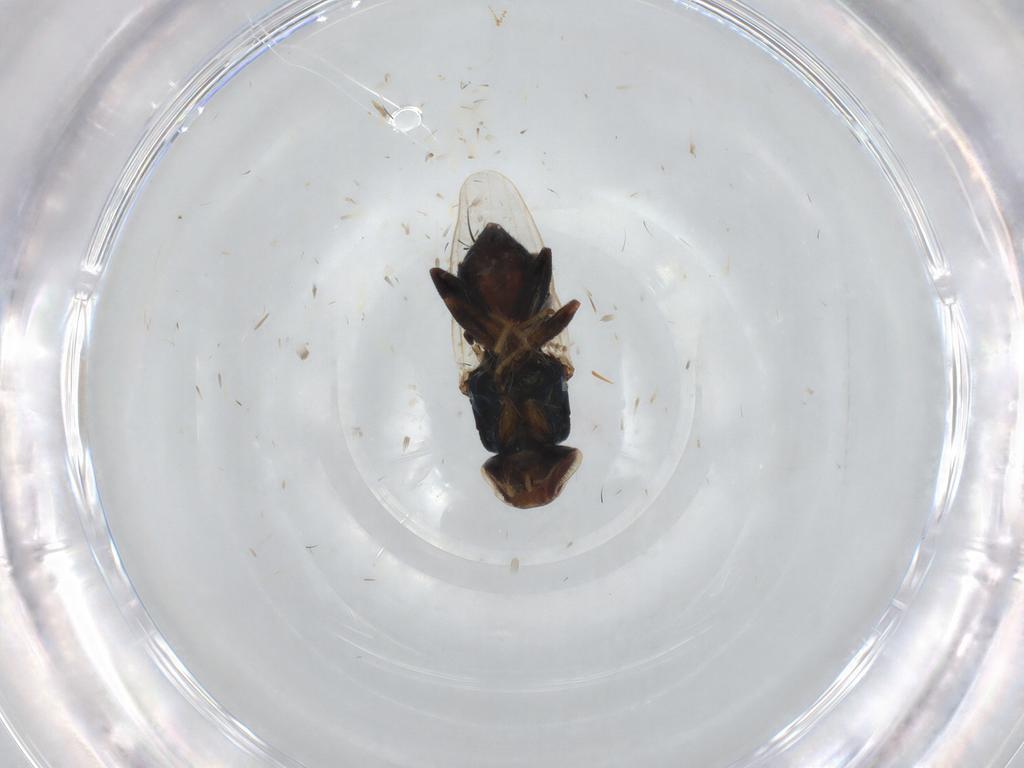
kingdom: Animalia
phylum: Arthropoda
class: Insecta
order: Diptera
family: Chloropidae
